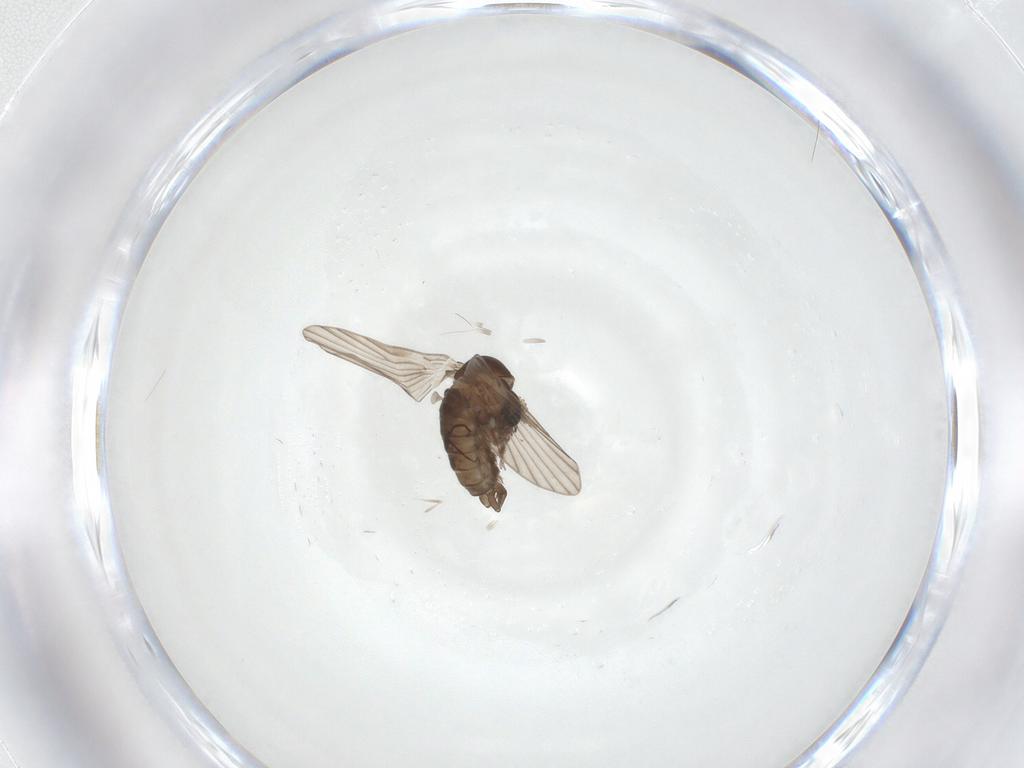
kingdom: Animalia
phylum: Arthropoda
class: Insecta
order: Diptera
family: Psychodidae
